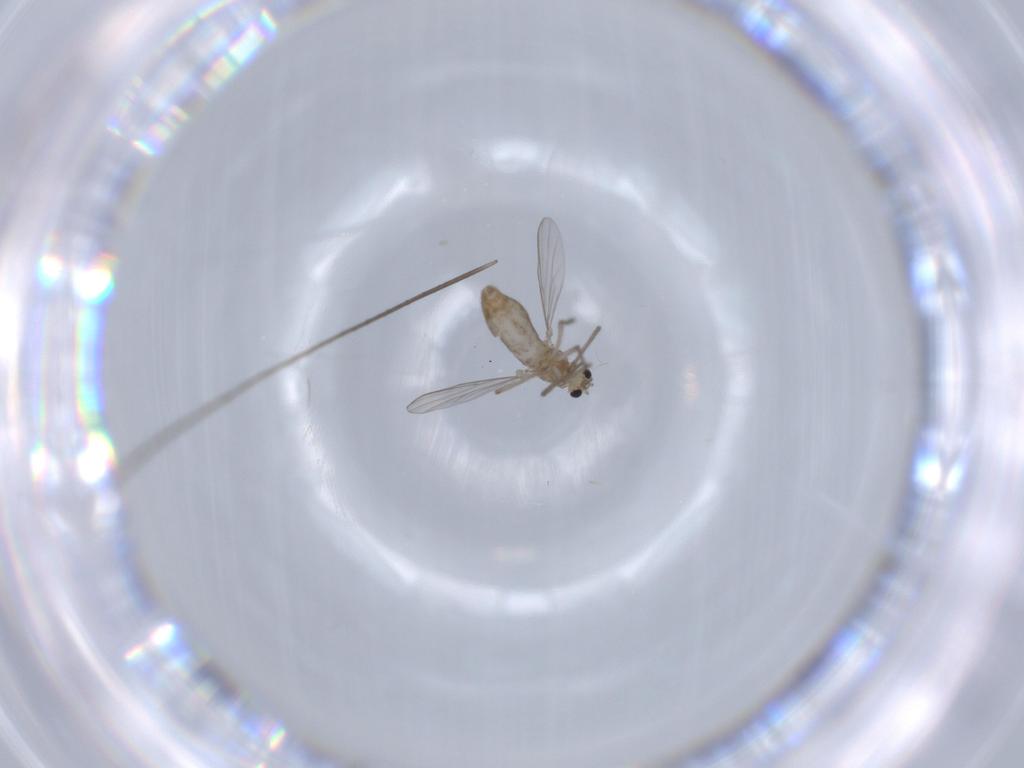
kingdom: Animalia
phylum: Arthropoda
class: Insecta
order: Diptera
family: Chironomidae
